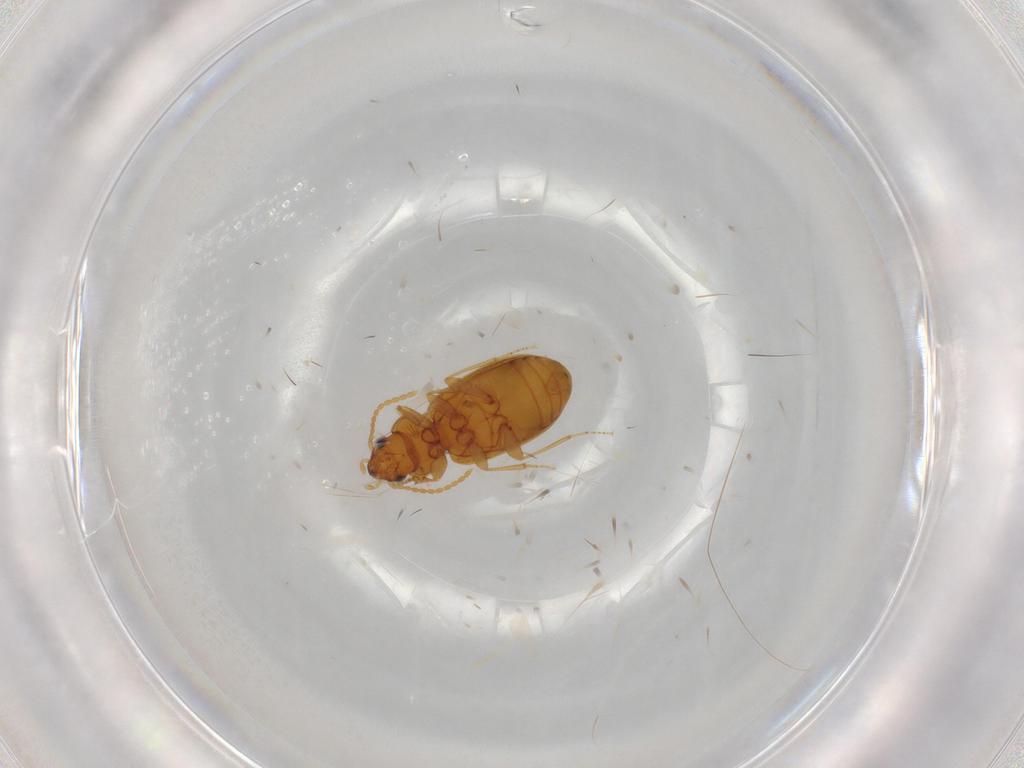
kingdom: Animalia
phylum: Arthropoda
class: Insecta
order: Coleoptera
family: Carabidae
